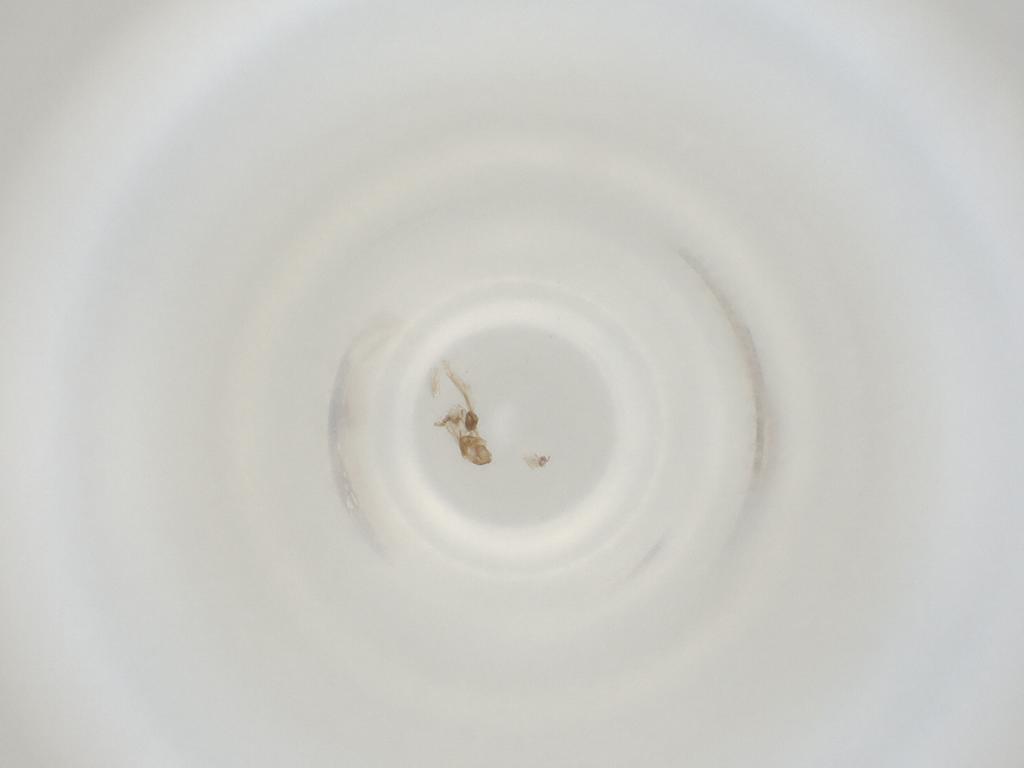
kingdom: Animalia
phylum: Arthropoda
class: Insecta
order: Diptera
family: Cecidomyiidae
